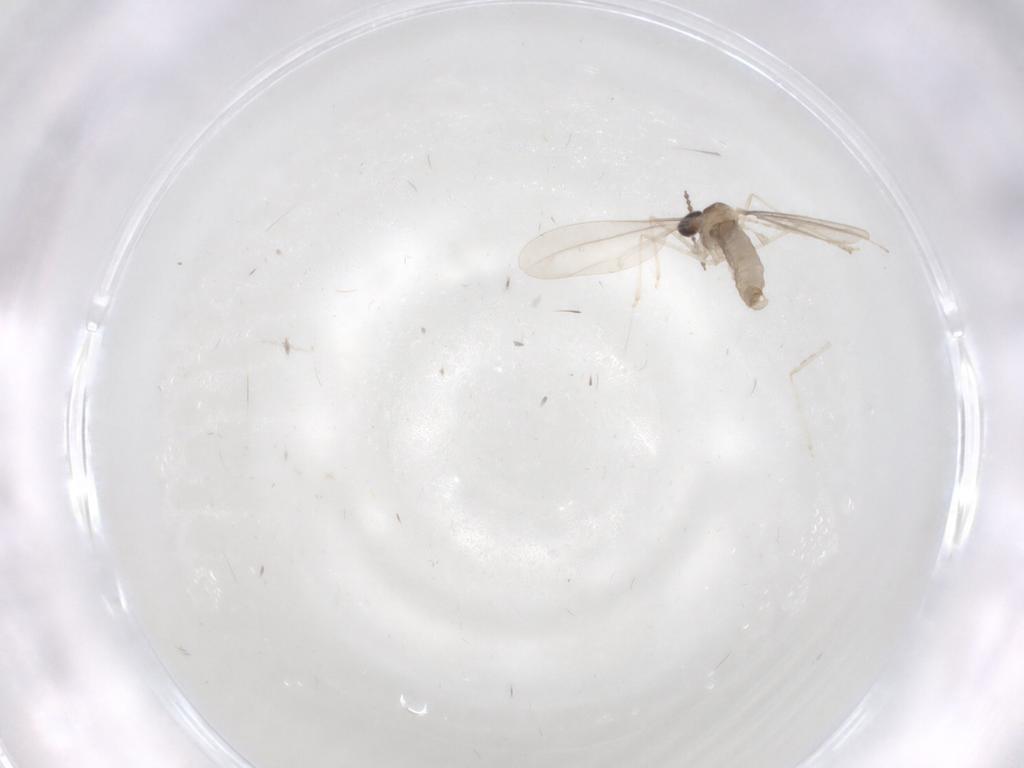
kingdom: Animalia
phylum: Arthropoda
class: Insecta
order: Diptera
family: Cecidomyiidae
